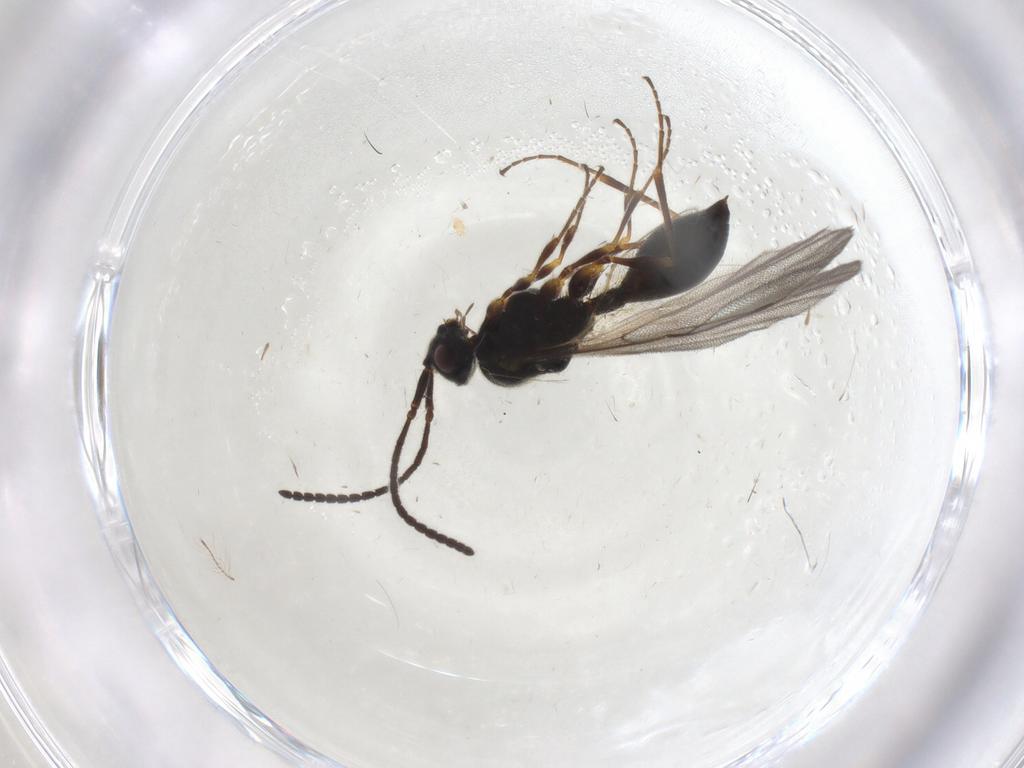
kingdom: Animalia
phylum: Arthropoda
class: Insecta
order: Hymenoptera
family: Diapriidae
